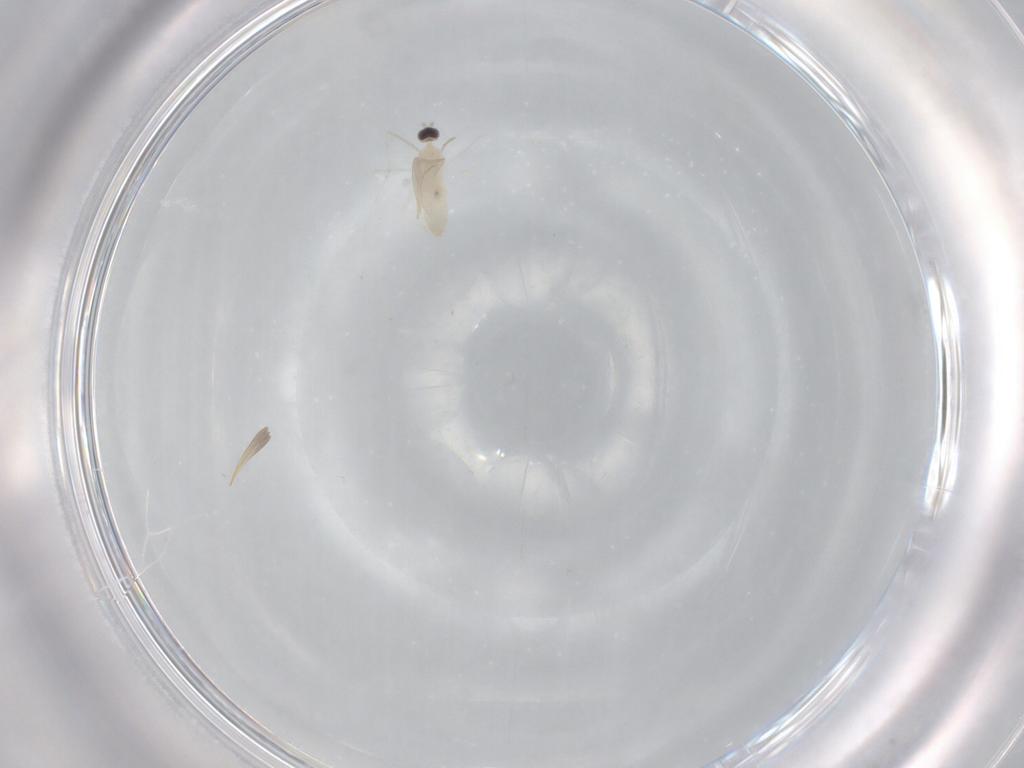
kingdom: Animalia
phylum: Arthropoda
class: Insecta
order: Diptera
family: Cecidomyiidae
